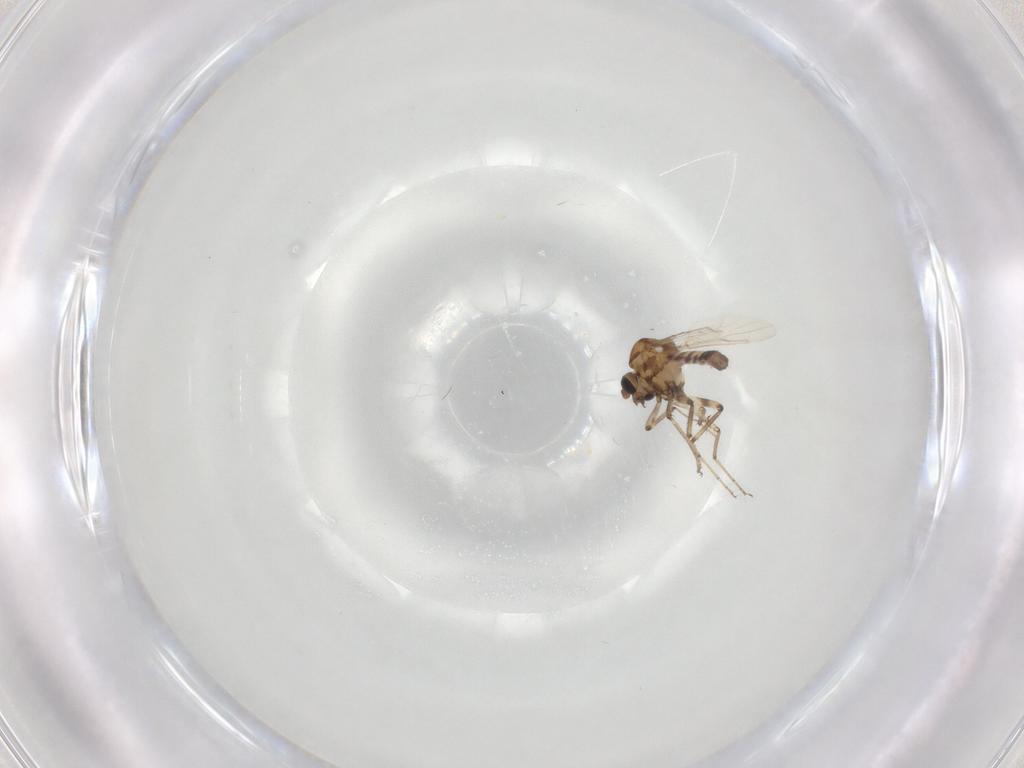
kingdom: Animalia
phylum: Arthropoda
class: Insecta
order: Diptera
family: Ceratopogonidae
